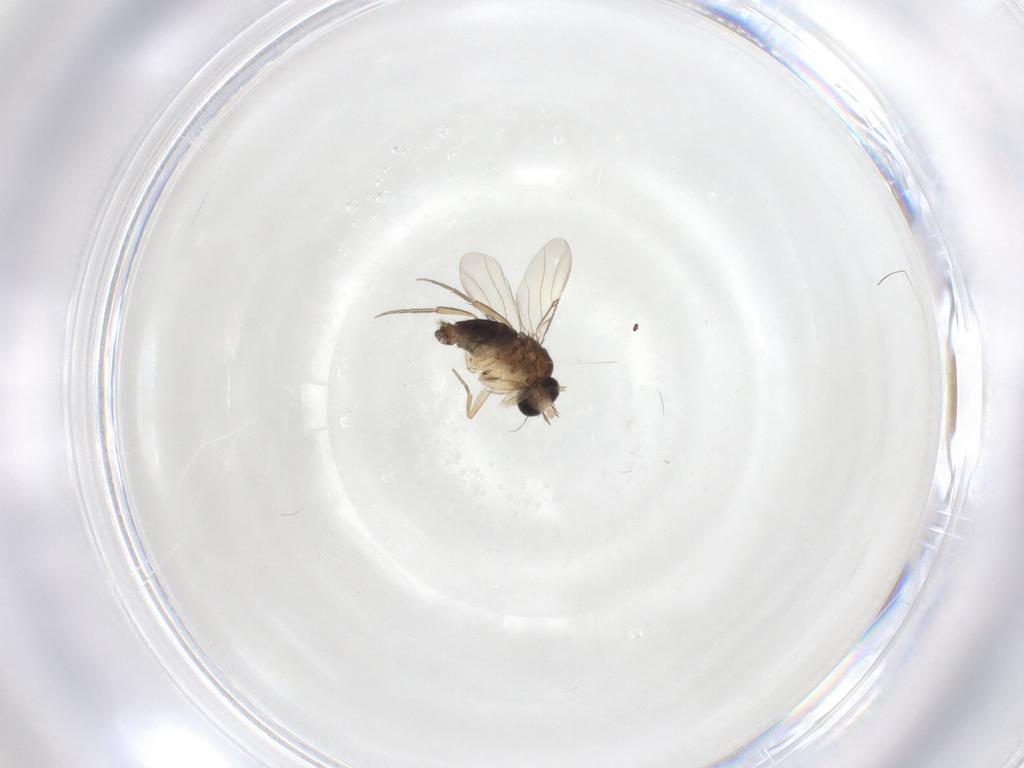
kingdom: Animalia
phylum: Arthropoda
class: Insecta
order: Diptera
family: Phoridae
